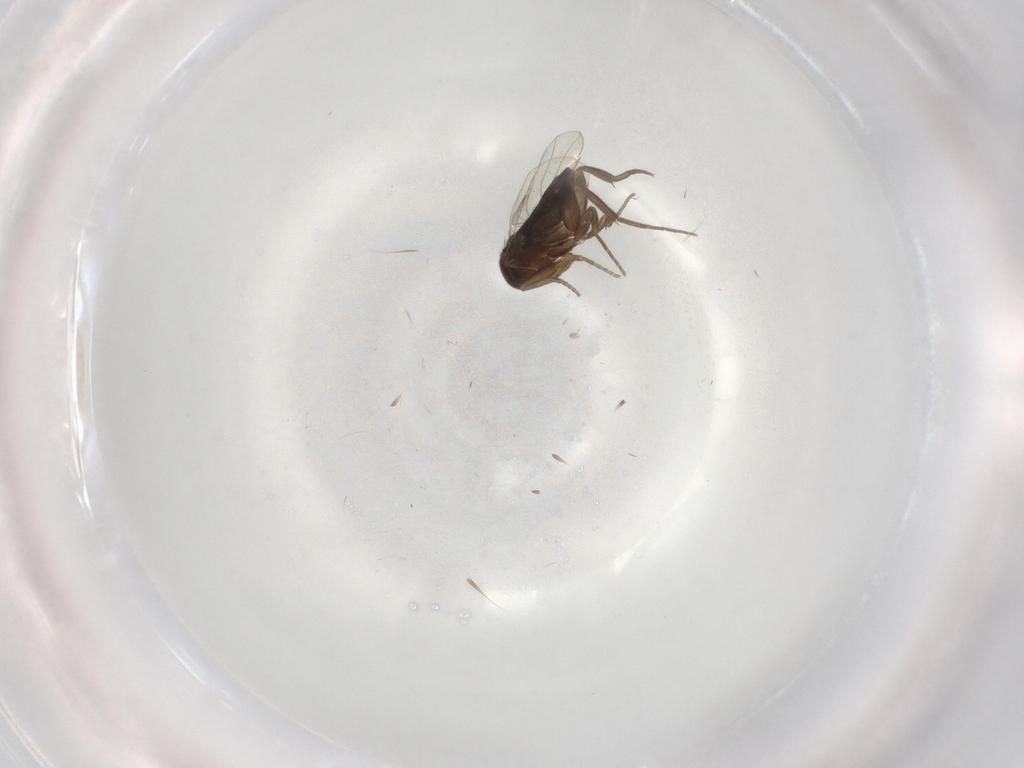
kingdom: Animalia
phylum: Arthropoda
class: Insecta
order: Diptera
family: Phoridae
